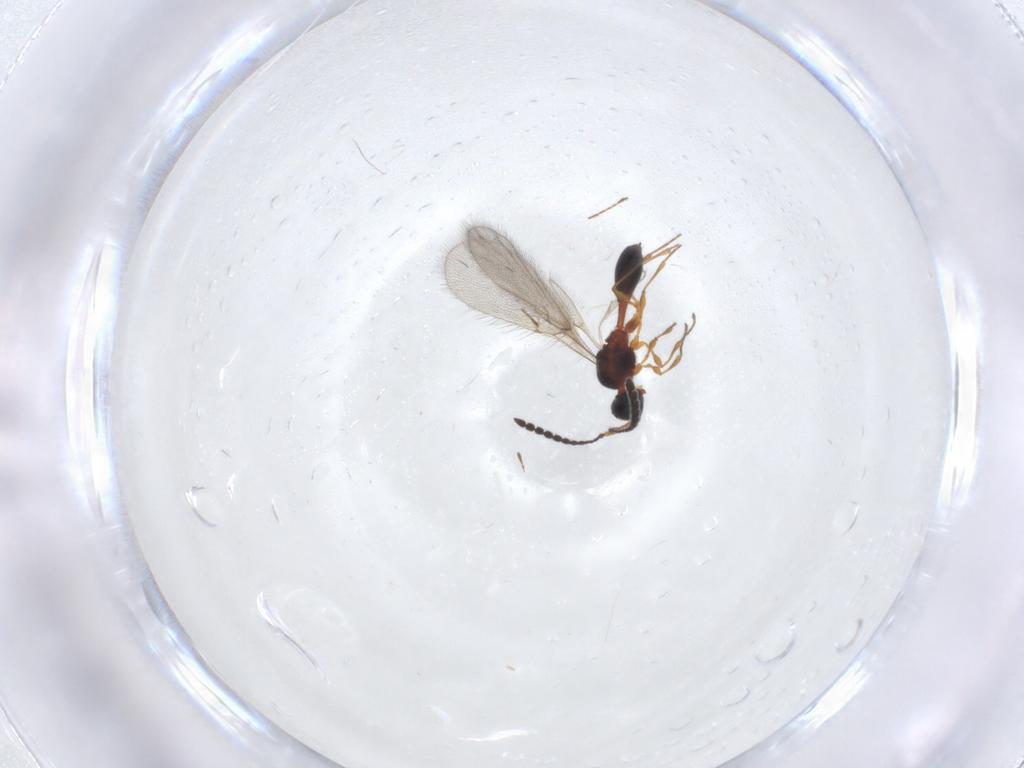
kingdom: Animalia
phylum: Arthropoda
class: Insecta
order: Hymenoptera
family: Diapriidae
